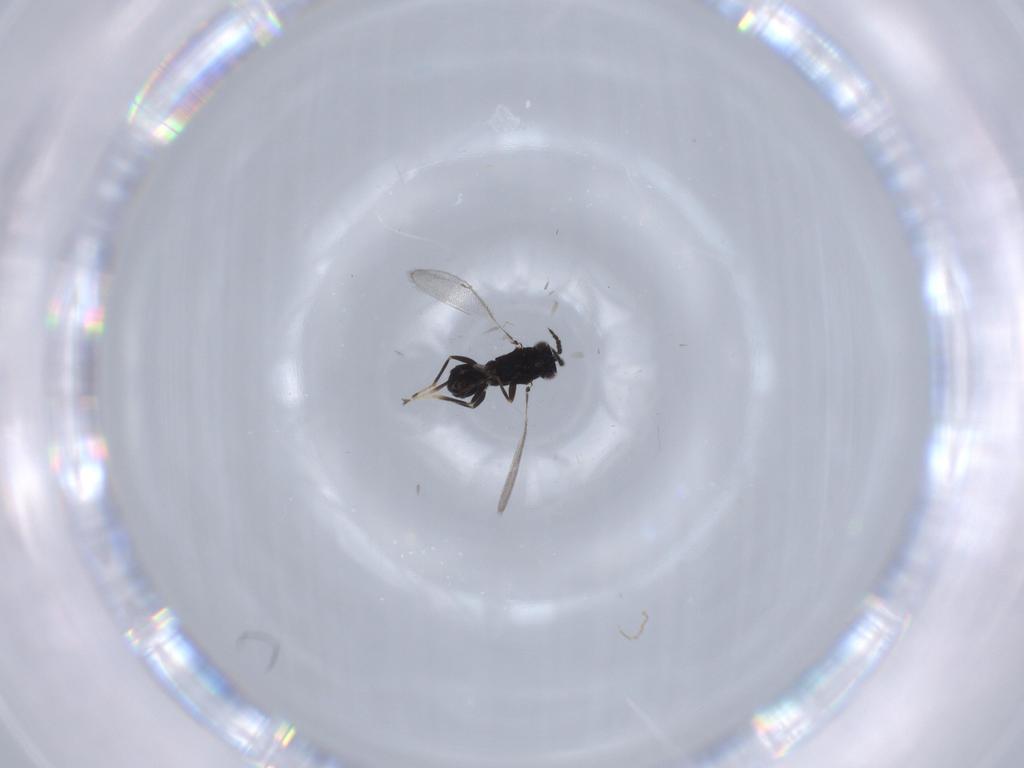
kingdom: Animalia
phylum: Arthropoda
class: Insecta
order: Hymenoptera
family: Eulophidae
